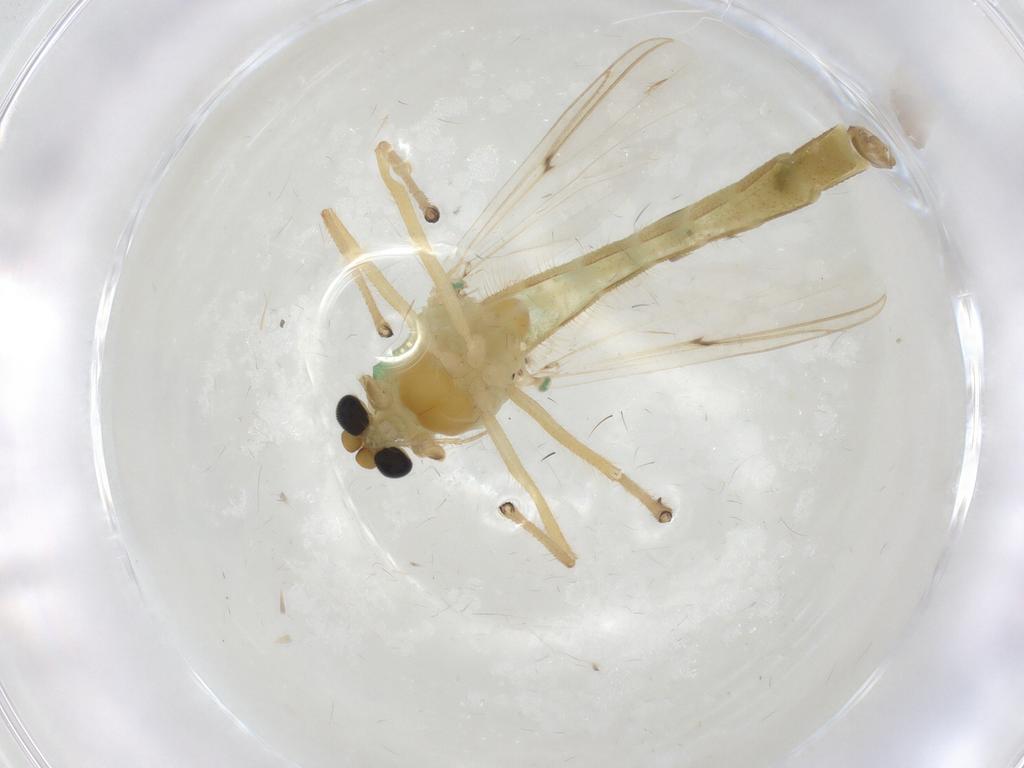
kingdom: Animalia
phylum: Arthropoda
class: Insecta
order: Diptera
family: Chironomidae
